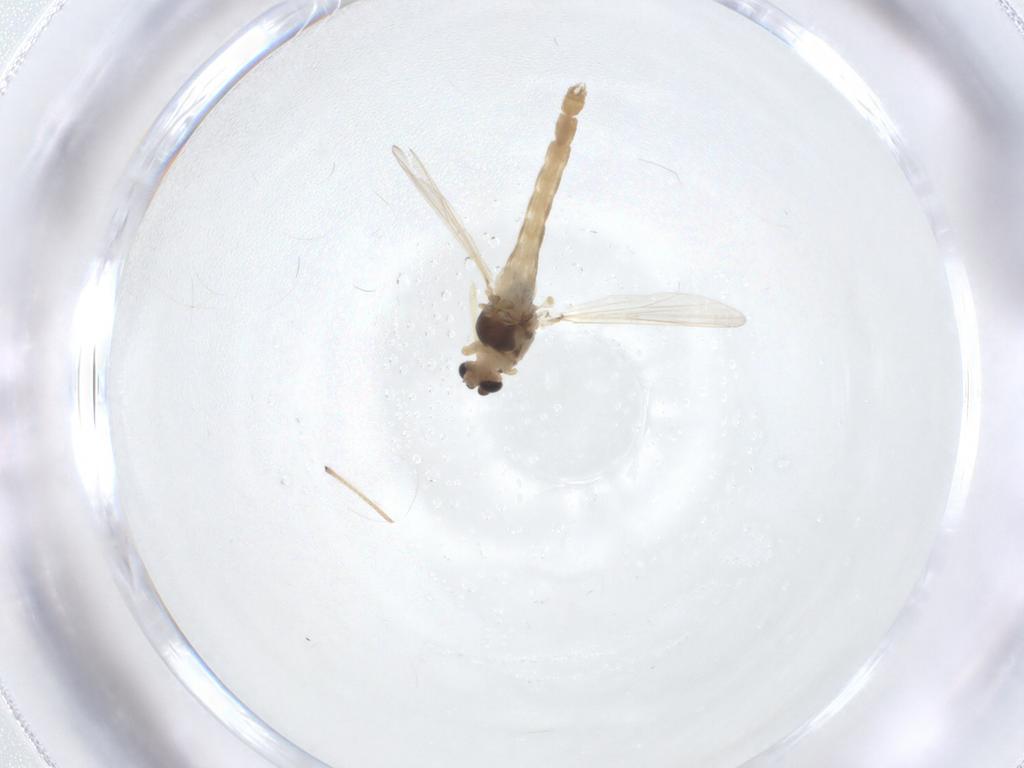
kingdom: Animalia
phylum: Arthropoda
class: Insecta
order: Diptera
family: Chironomidae
